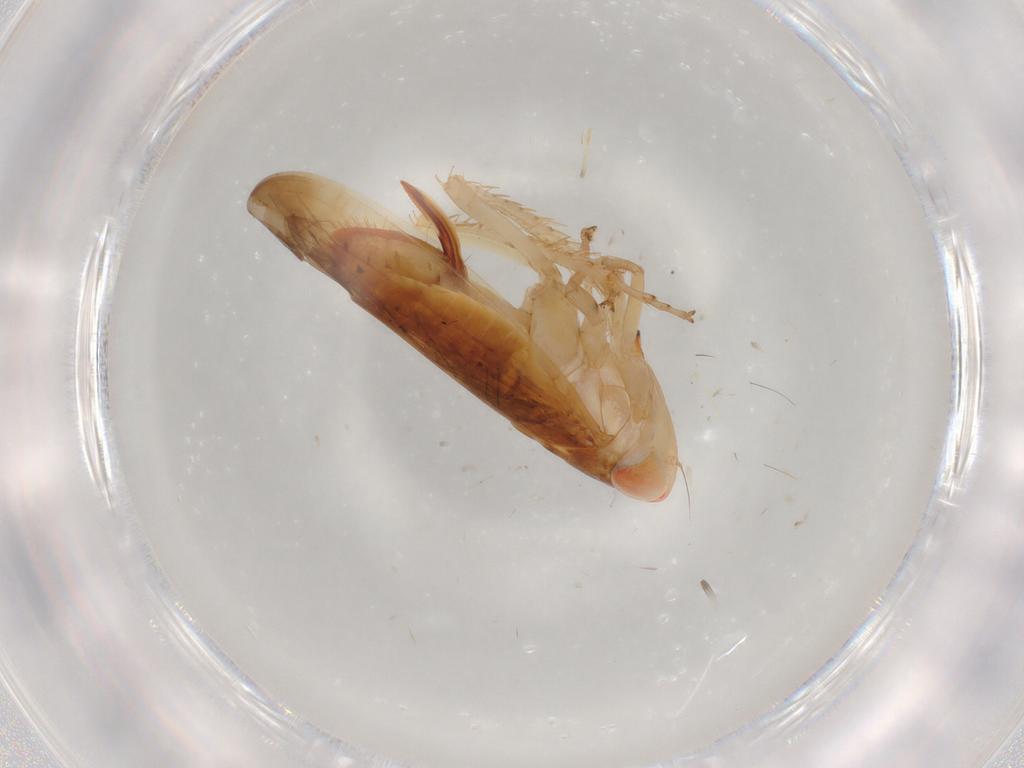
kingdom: Animalia
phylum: Arthropoda
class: Insecta
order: Hemiptera
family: Cicadellidae
